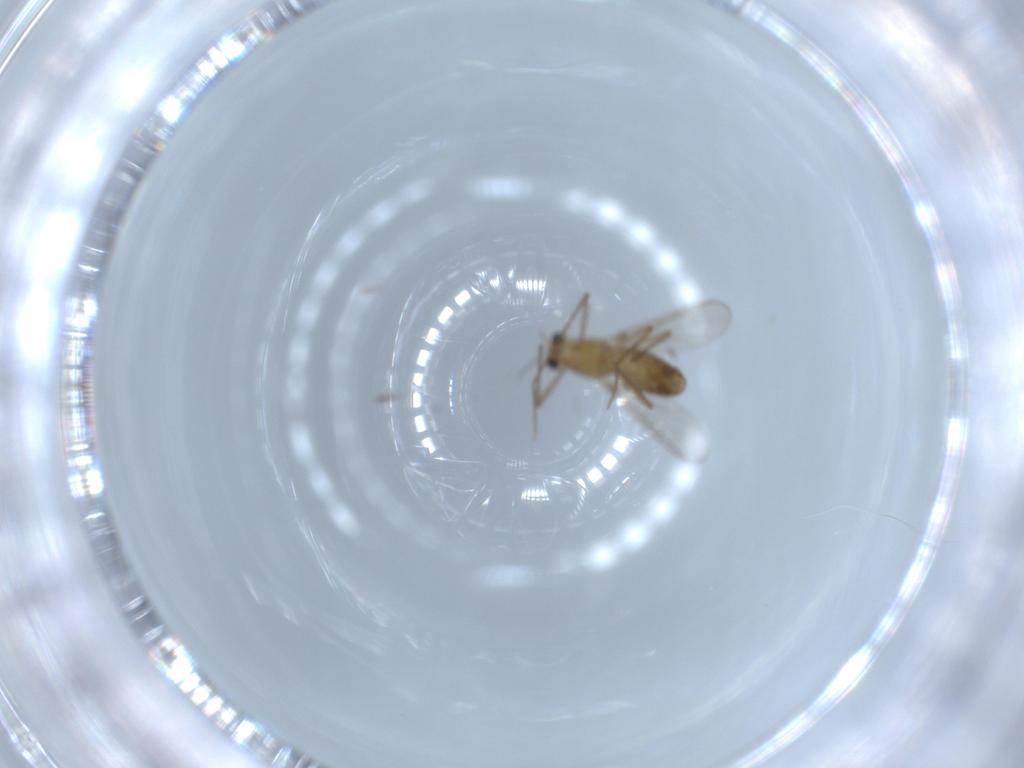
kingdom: Animalia
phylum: Arthropoda
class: Insecta
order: Diptera
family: Chironomidae
